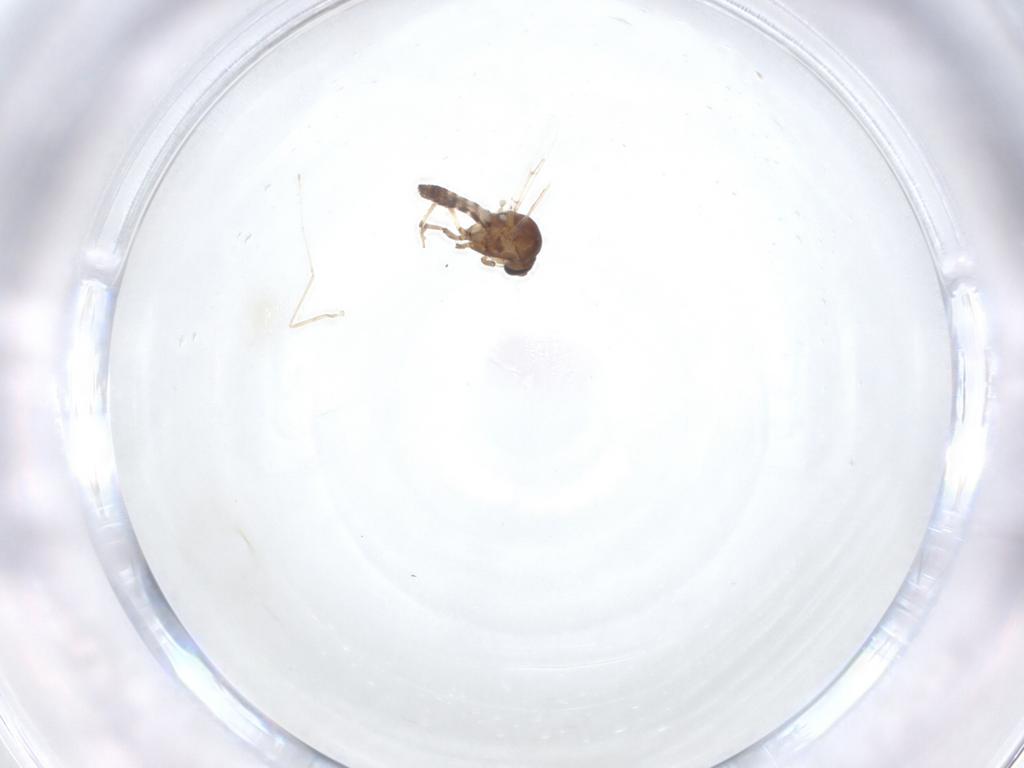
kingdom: Animalia
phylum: Arthropoda
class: Insecta
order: Diptera
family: Ceratopogonidae
